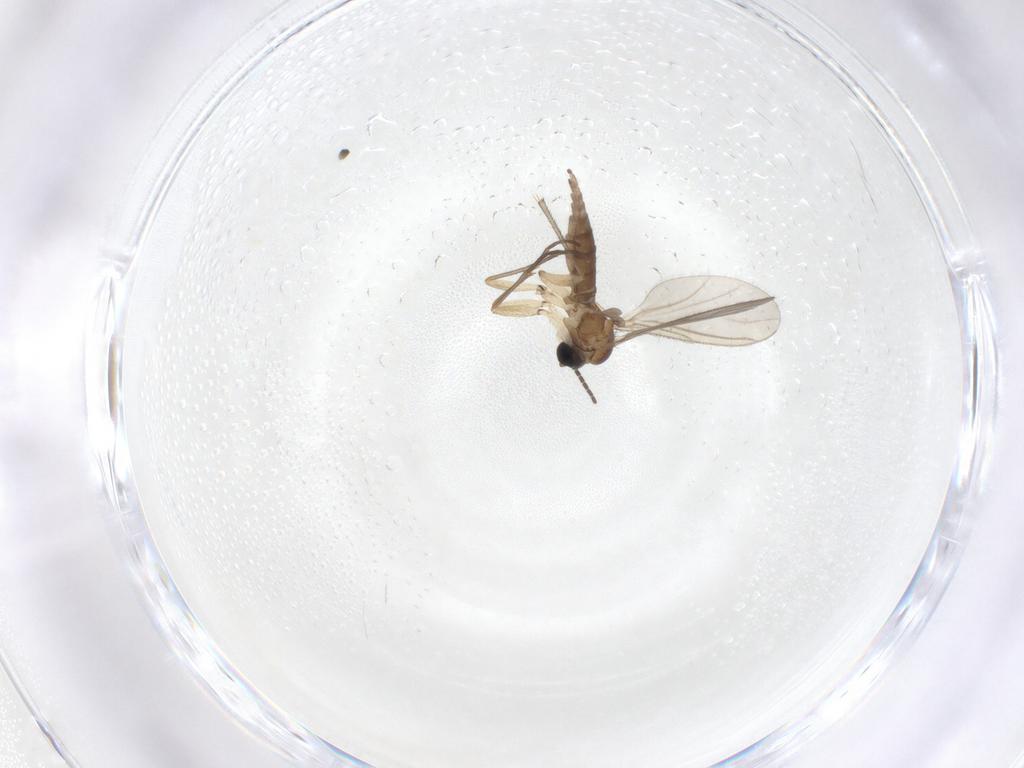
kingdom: Animalia
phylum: Arthropoda
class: Insecta
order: Diptera
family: Sciaridae
